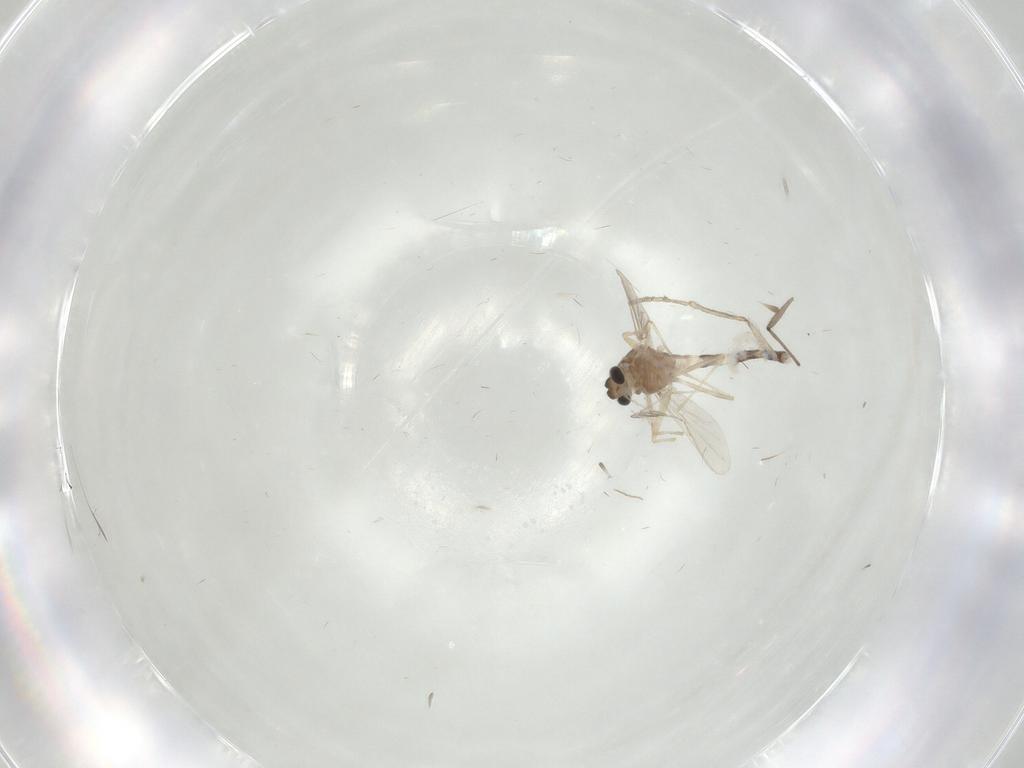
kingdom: Animalia
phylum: Arthropoda
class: Insecta
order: Diptera
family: Chironomidae
